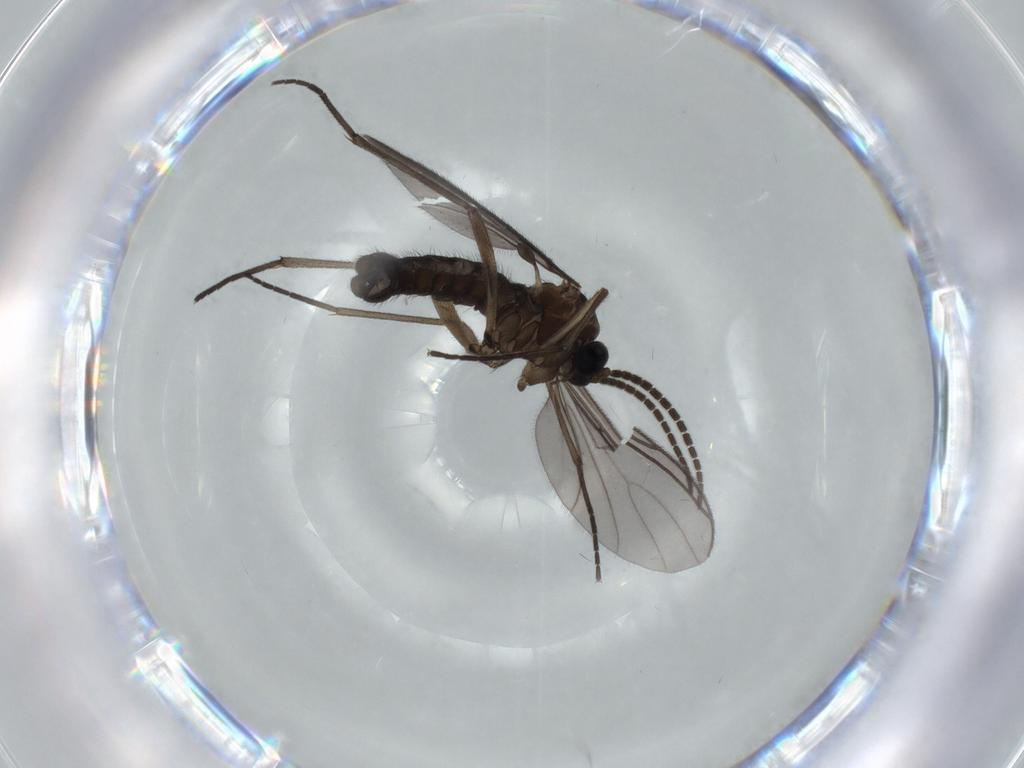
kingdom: Animalia
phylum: Arthropoda
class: Insecta
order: Diptera
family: Sciaridae
